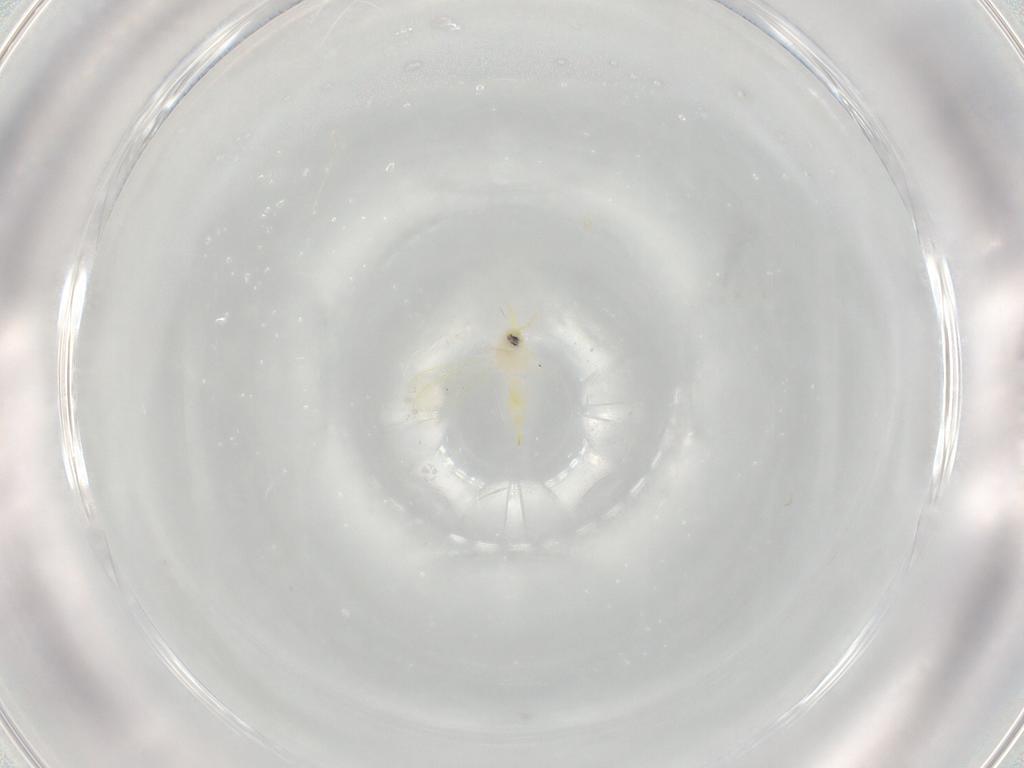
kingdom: Animalia
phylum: Arthropoda
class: Insecta
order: Hemiptera
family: Aleyrodidae
